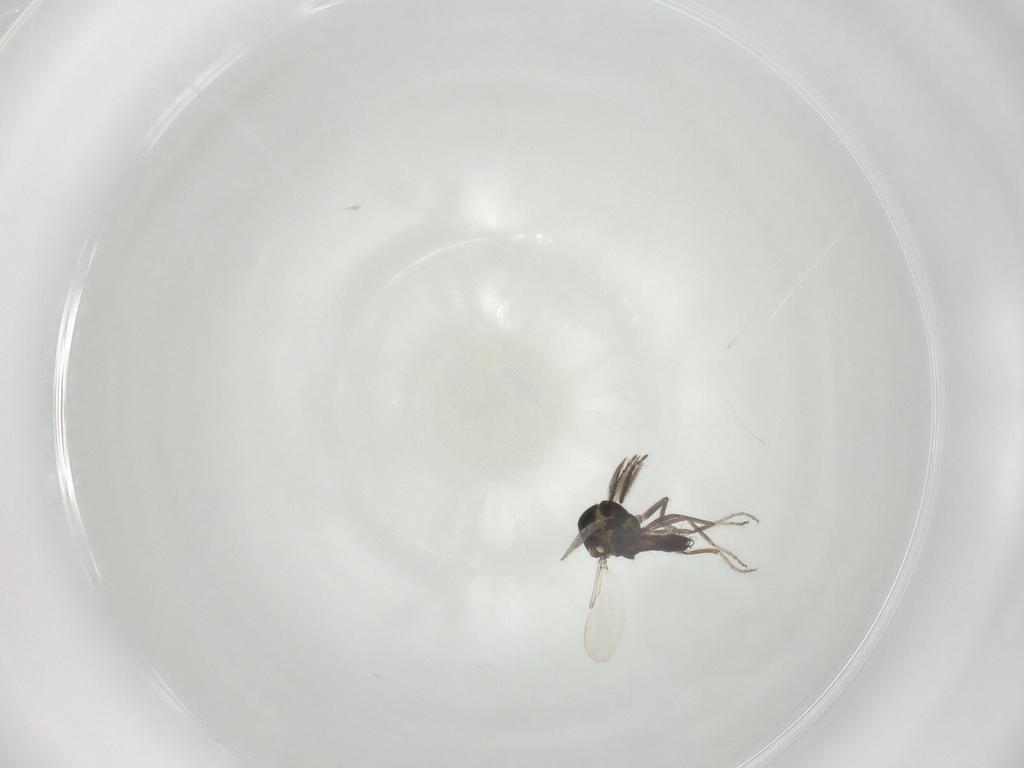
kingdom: Animalia
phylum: Arthropoda
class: Insecta
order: Diptera
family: Ceratopogonidae
